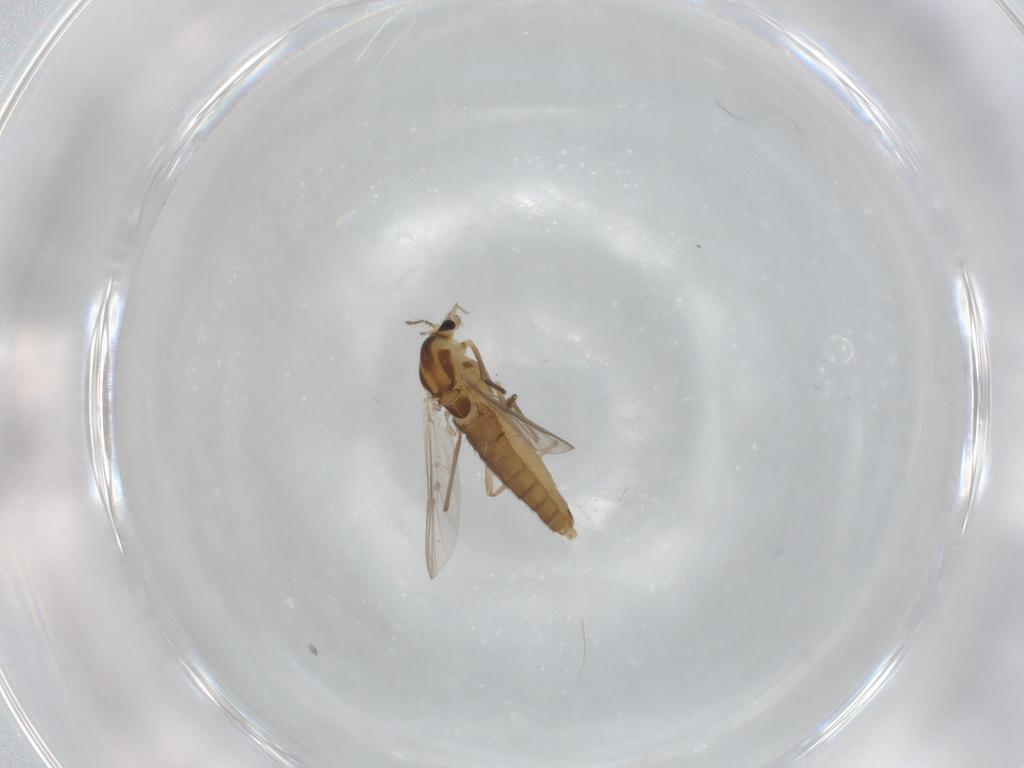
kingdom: Animalia
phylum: Arthropoda
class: Insecta
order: Diptera
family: Chironomidae
